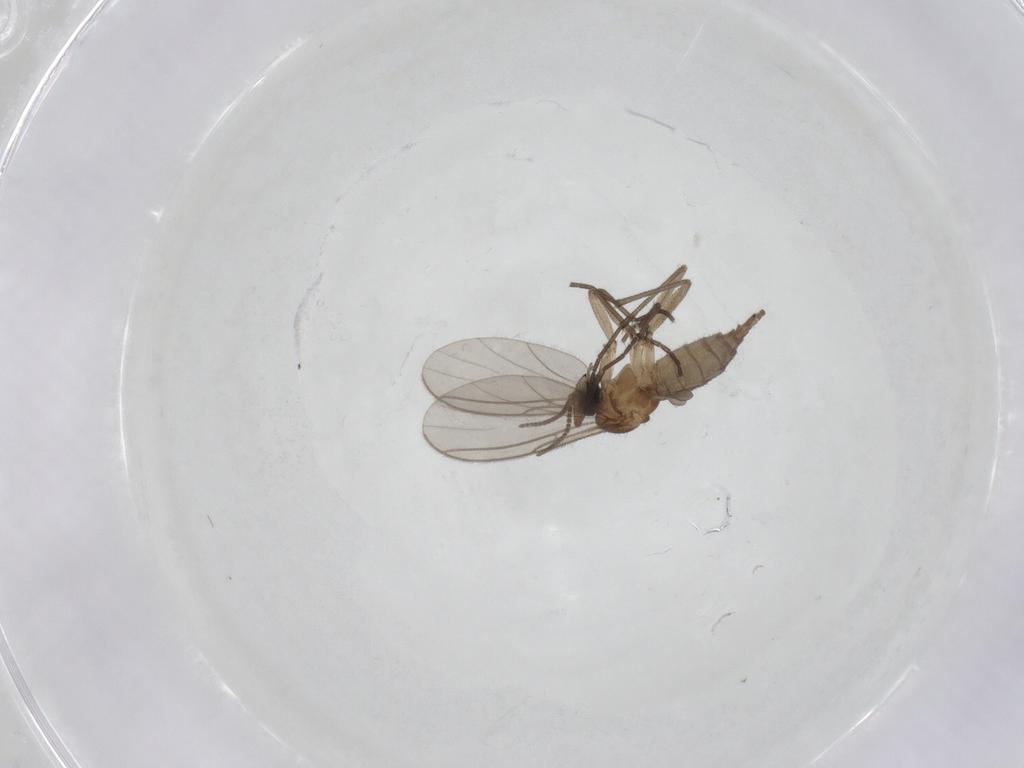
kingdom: Animalia
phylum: Arthropoda
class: Insecta
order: Diptera
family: Sciaridae
